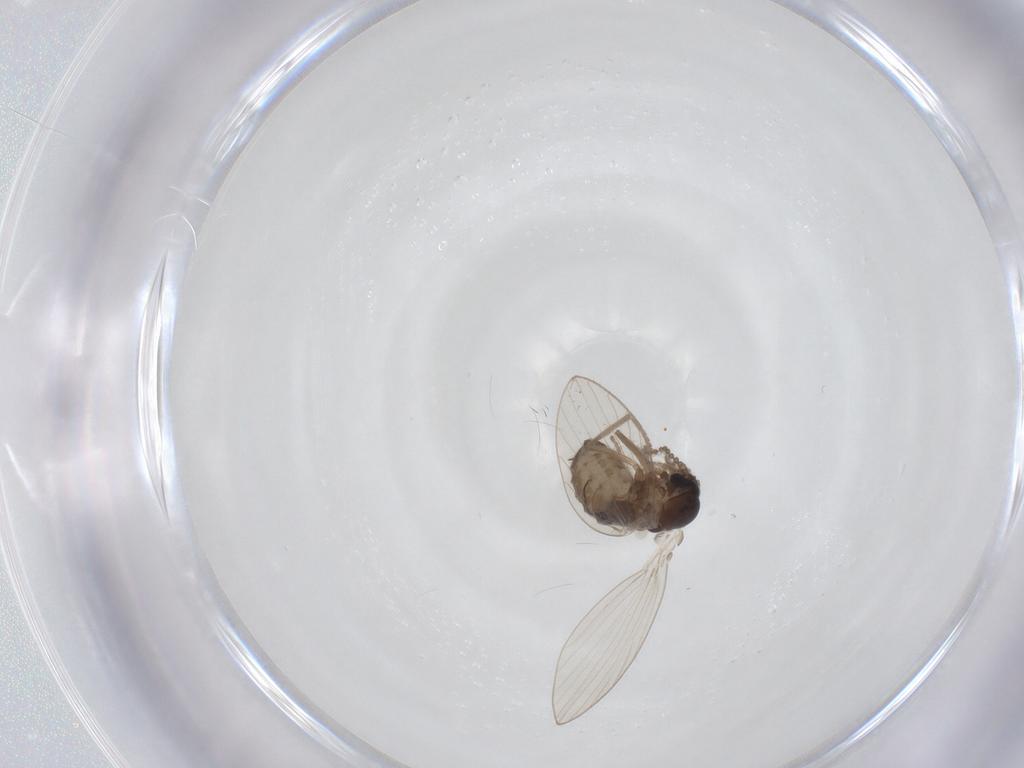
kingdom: Animalia
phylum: Arthropoda
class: Insecta
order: Diptera
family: Psychodidae
